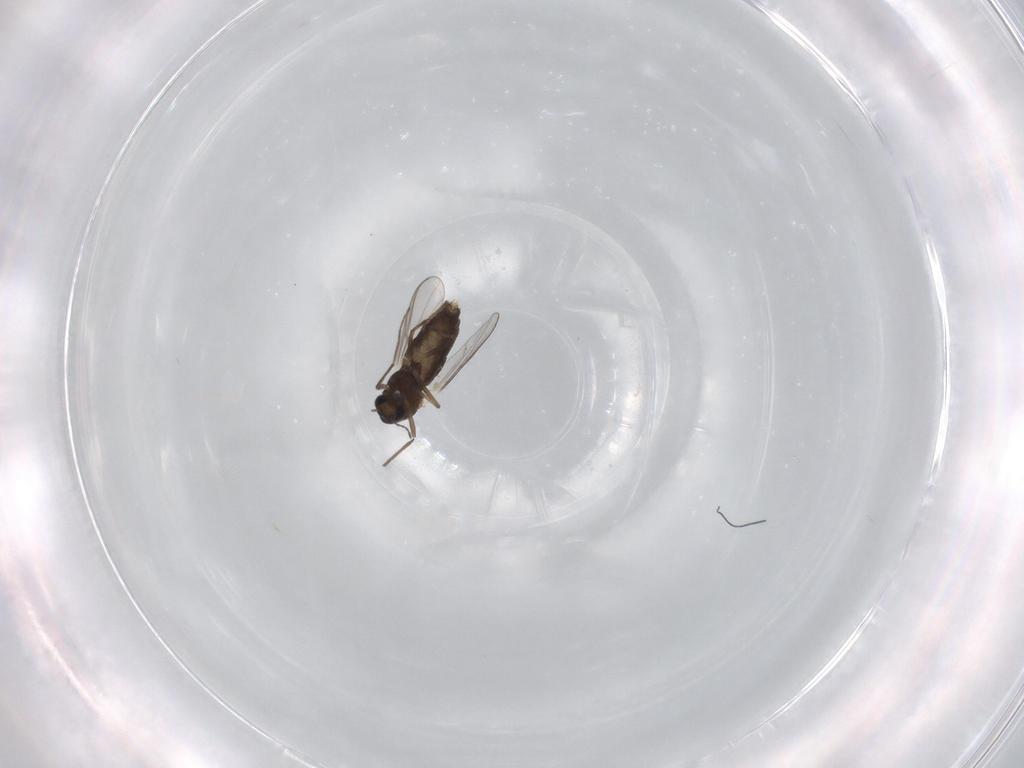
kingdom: Animalia
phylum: Arthropoda
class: Insecta
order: Diptera
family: Chironomidae
